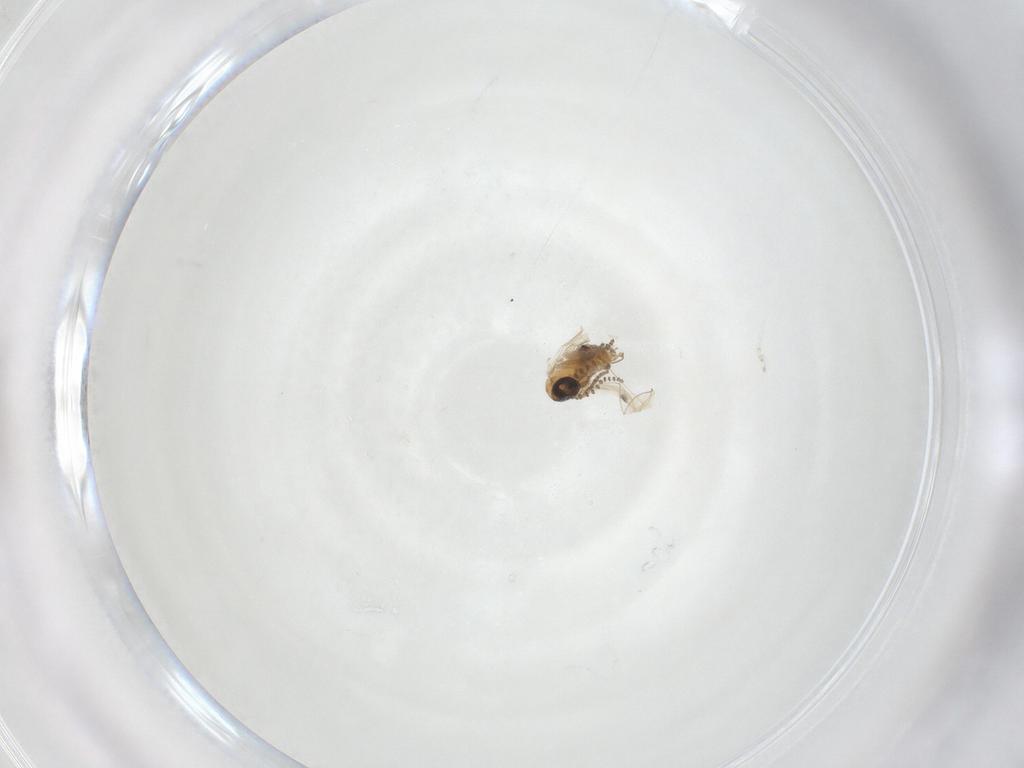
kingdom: Animalia
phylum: Arthropoda
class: Insecta
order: Diptera
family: Psychodidae
